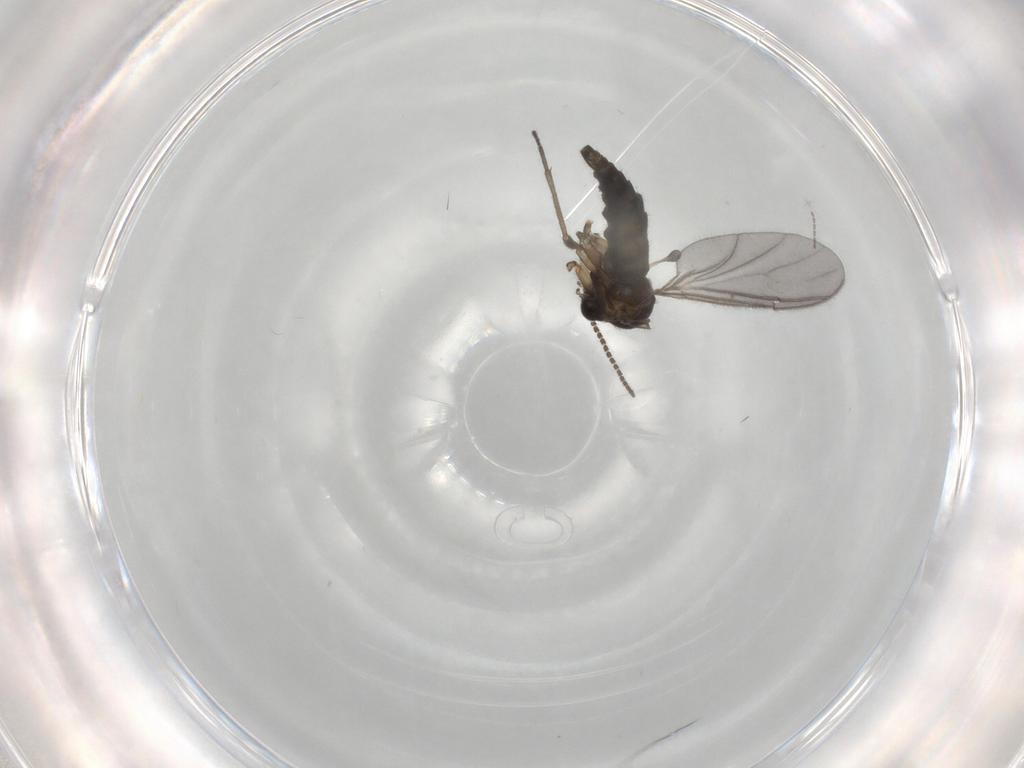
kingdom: Animalia
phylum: Arthropoda
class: Insecta
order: Diptera
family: Sciaridae
